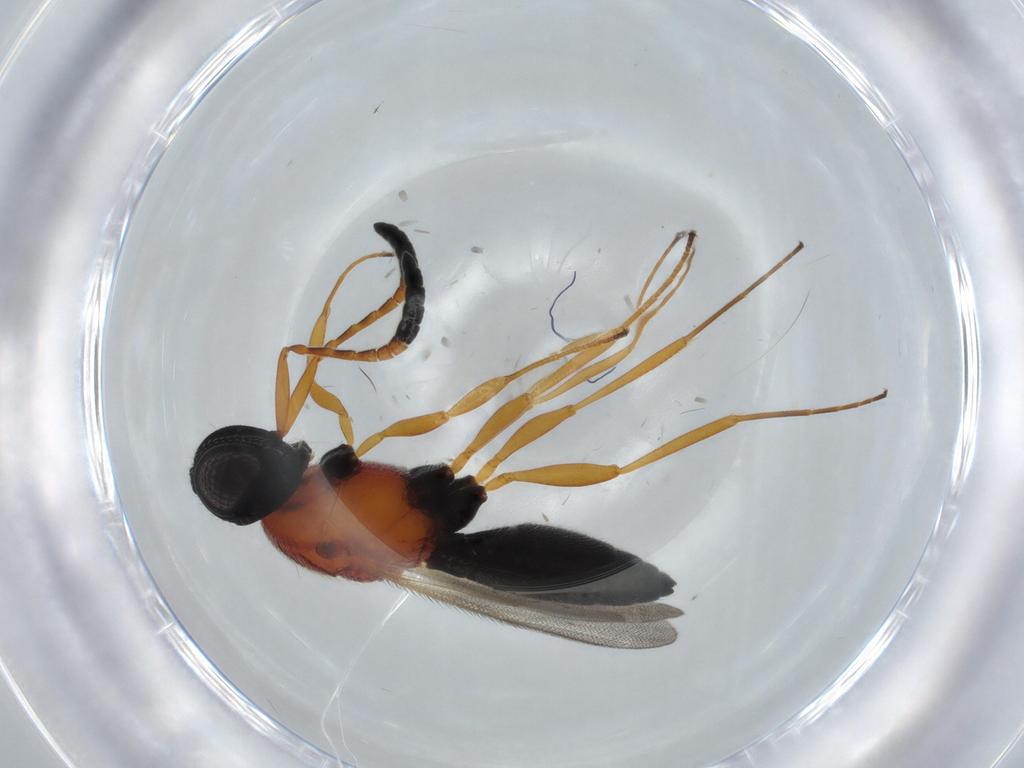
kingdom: Animalia
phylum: Arthropoda
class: Insecta
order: Hymenoptera
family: Scelionidae
